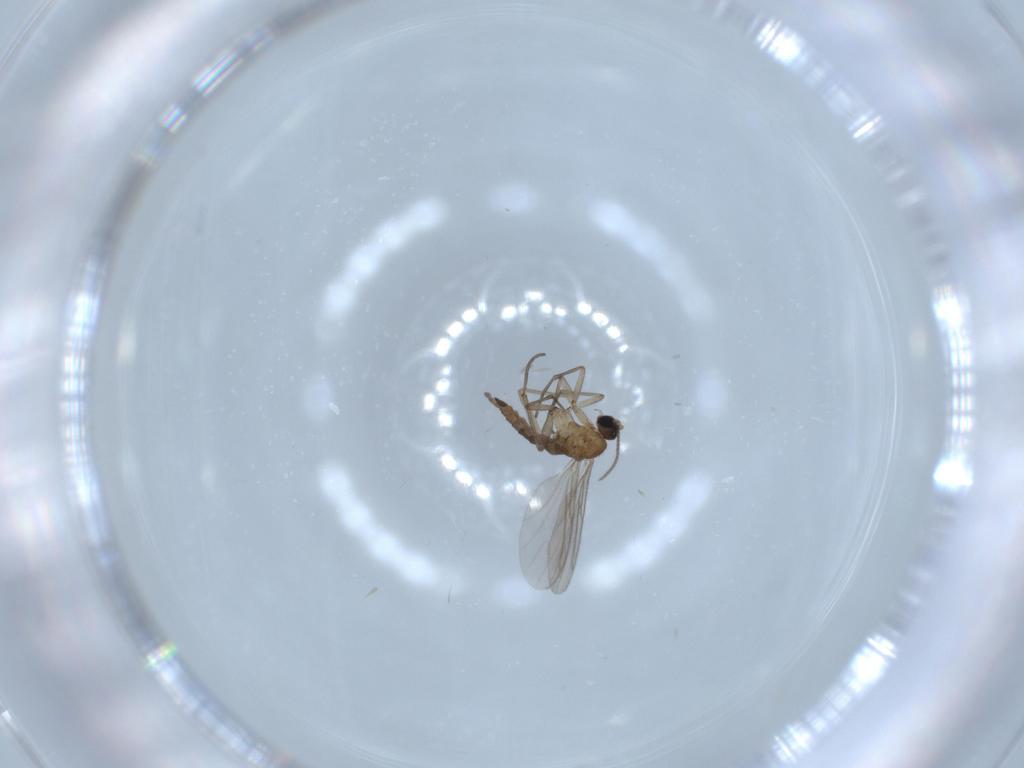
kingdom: Animalia
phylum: Arthropoda
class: Insecta
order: Diptera
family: Sciaridae
